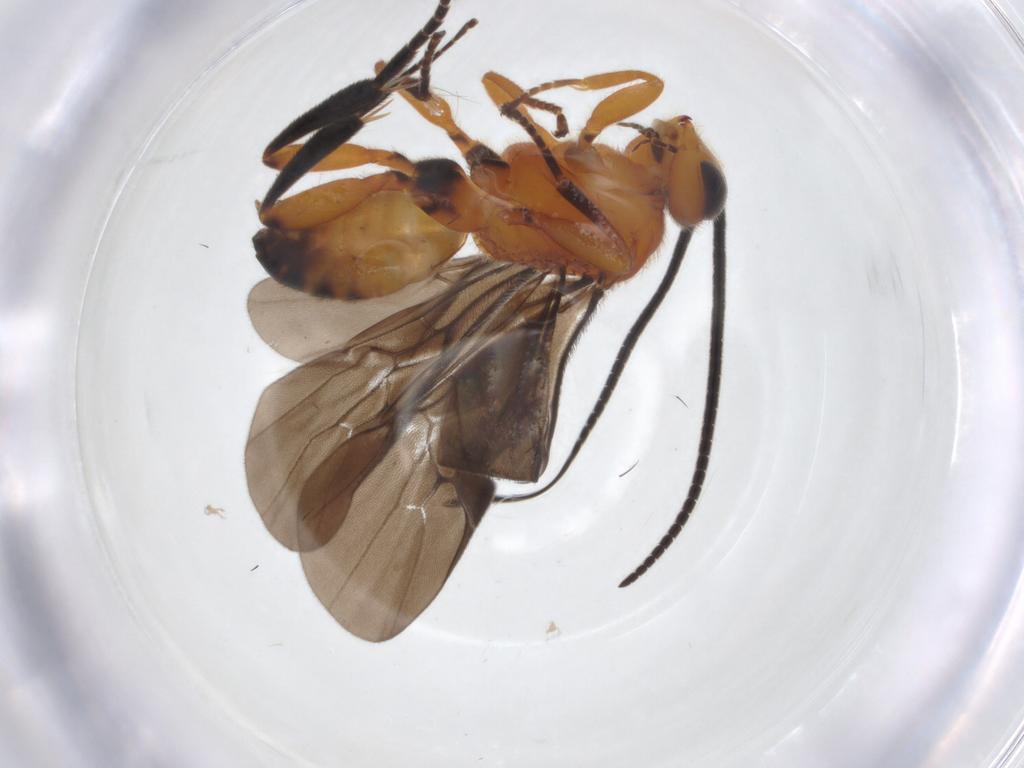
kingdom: Animalia
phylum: Arthropoda
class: Insecta
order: Hymenoptera
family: Braconidae
